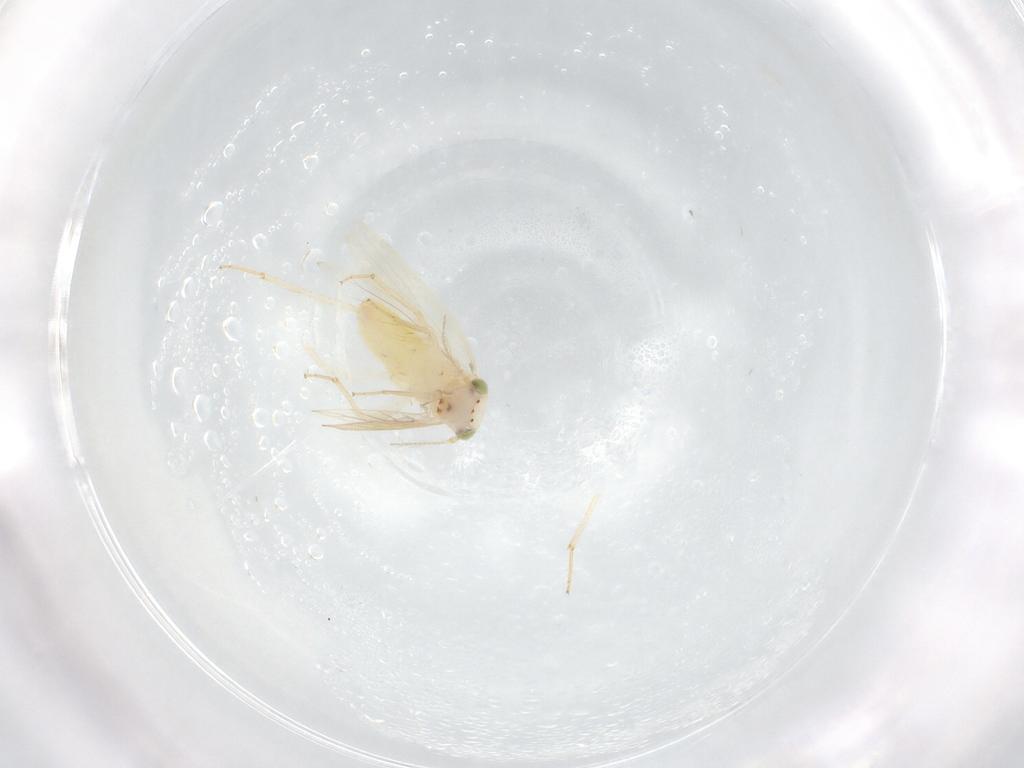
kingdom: Animalia
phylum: Arthropoda
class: Insecta
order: Psocodea
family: Lepidopsocidae
